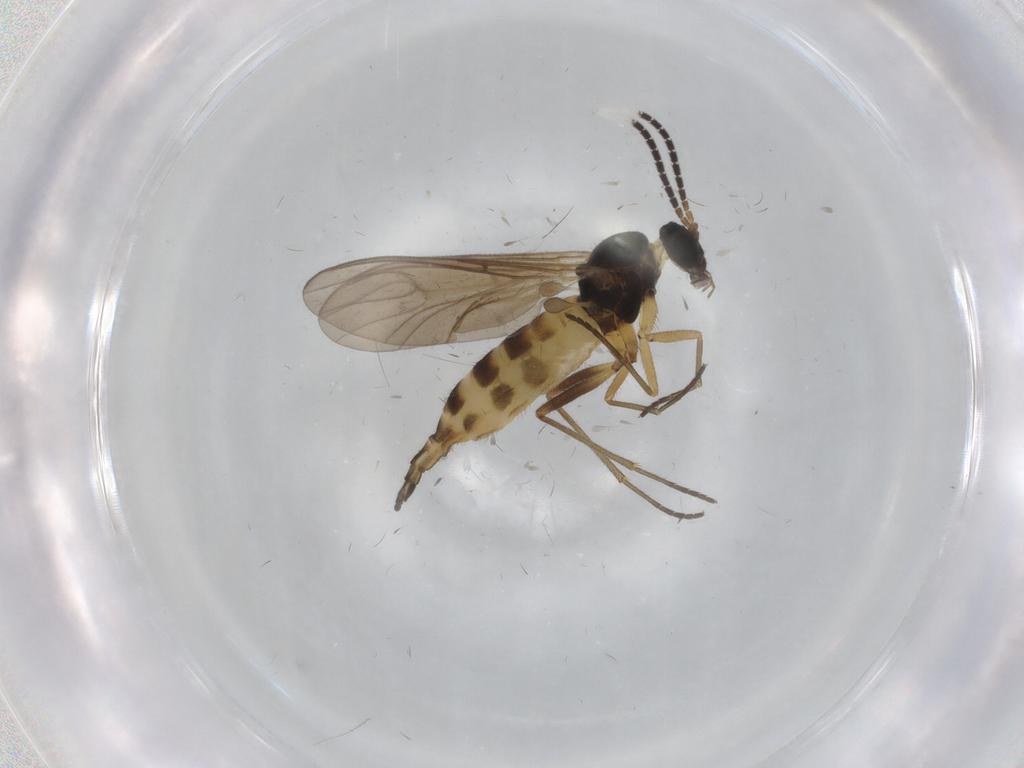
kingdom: Animalia
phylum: Arthropoda
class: Insecta
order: Diptera
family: Sciaridae
